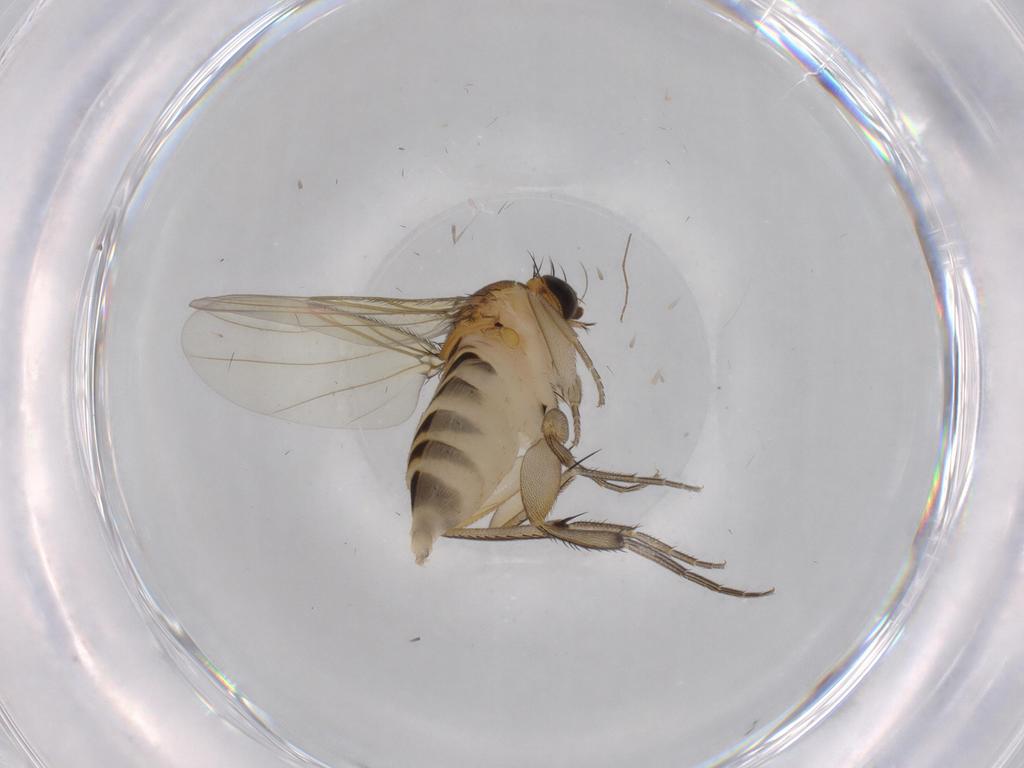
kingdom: Animalia
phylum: Arthropoda
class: Insecta
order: Diptera
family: Phoridae
